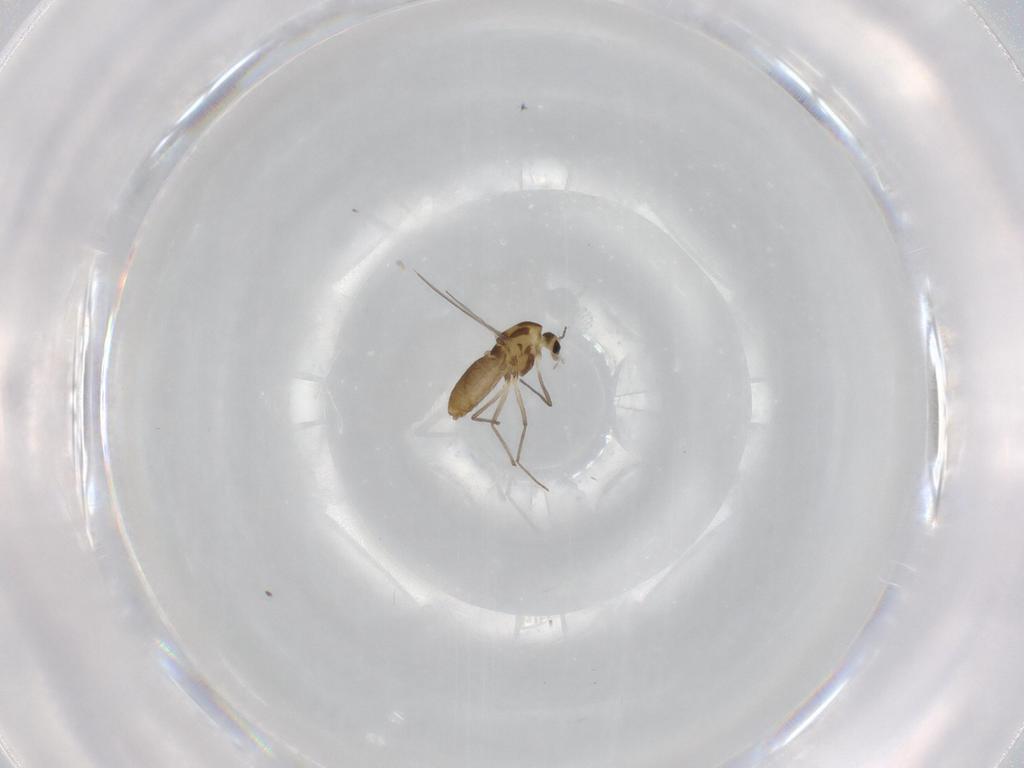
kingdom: Animalia
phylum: Arthropoda
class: Insecta
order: Diptera
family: Chironomidae
